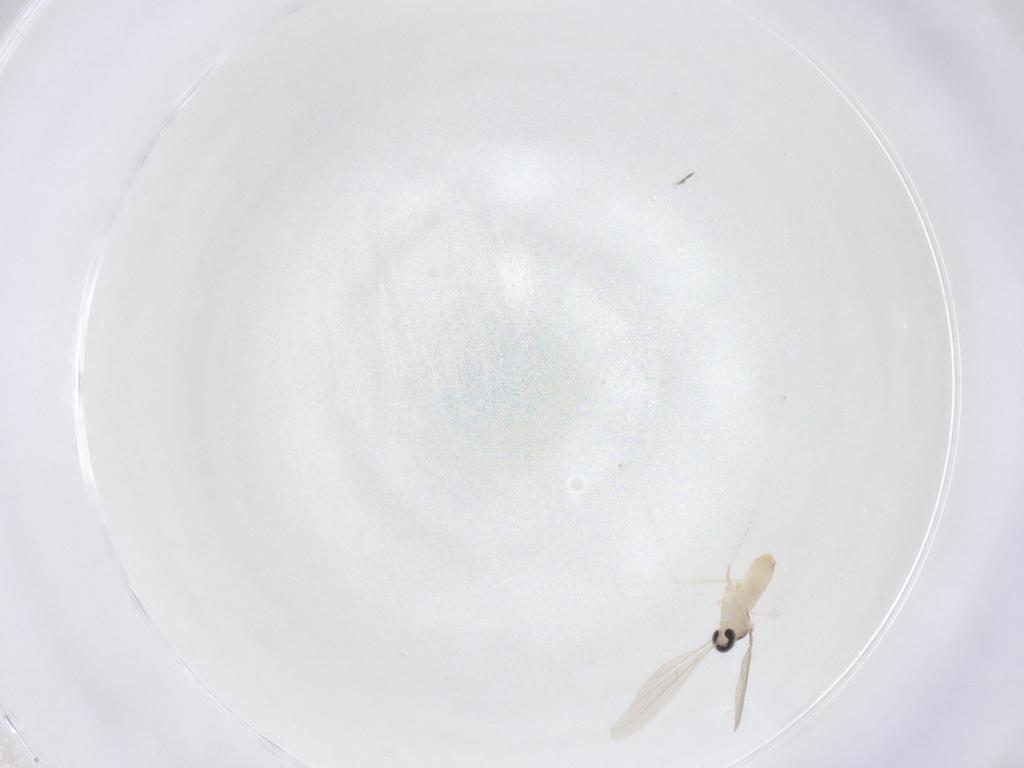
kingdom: Animalia
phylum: Arthropoda
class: Insecta
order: Diptera
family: Cecidomyiidae
